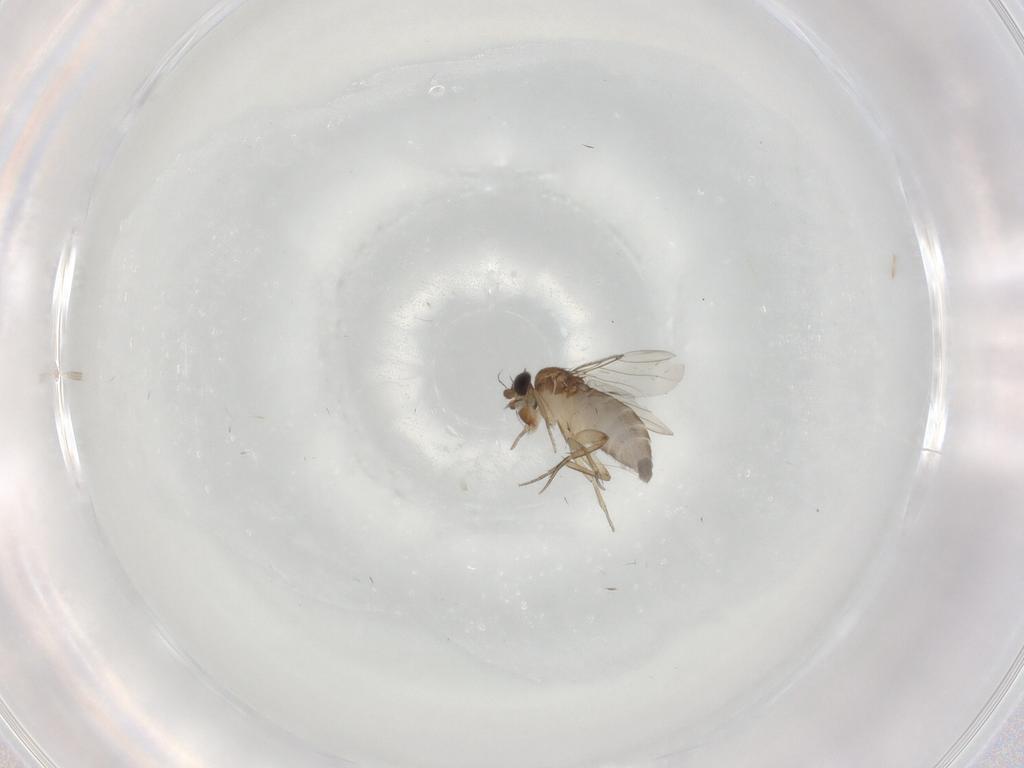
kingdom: Animalia
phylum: Arthropoda
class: Insecta
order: Diptera
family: Phoridae
